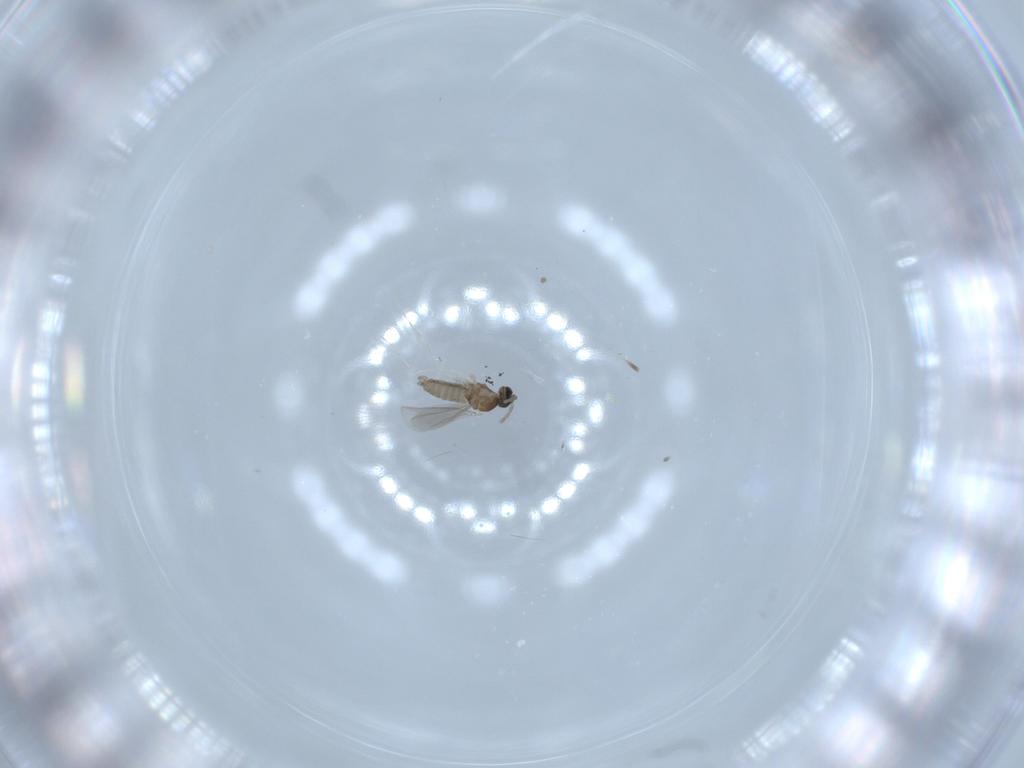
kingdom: Animalia
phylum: Arthropoda
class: Insecta
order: Diptera
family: Cecidomyiidae
